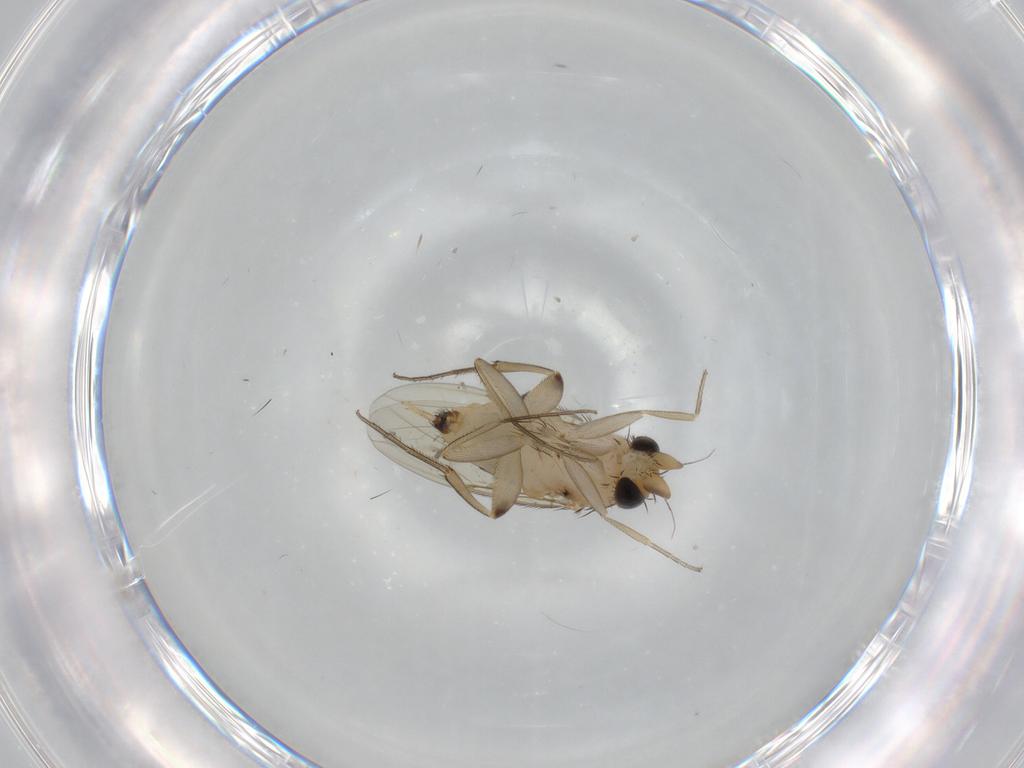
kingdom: Animalia
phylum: Arthropoda
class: Insecta
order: Diptera
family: Phoridae
